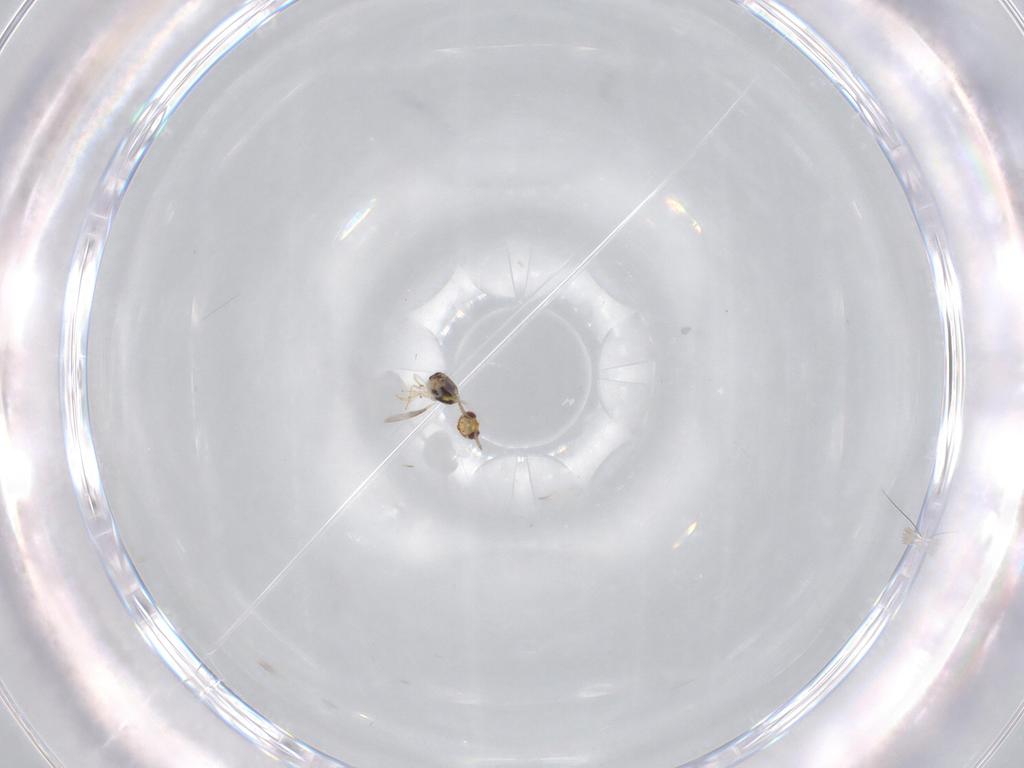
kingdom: Animalia
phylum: Arthropoda
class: Insecta
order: Hymenoptera
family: Aphelinidae
